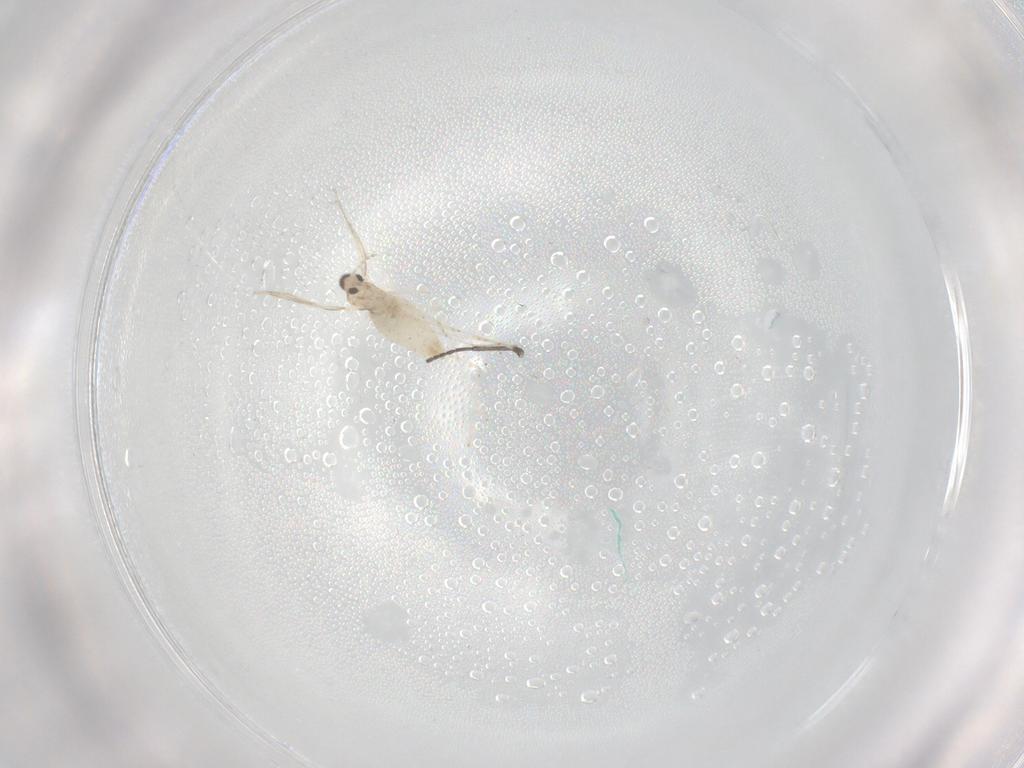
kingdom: Animalia
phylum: Arthropoda
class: Insecta
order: Diptera
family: Cecidomyiidae
